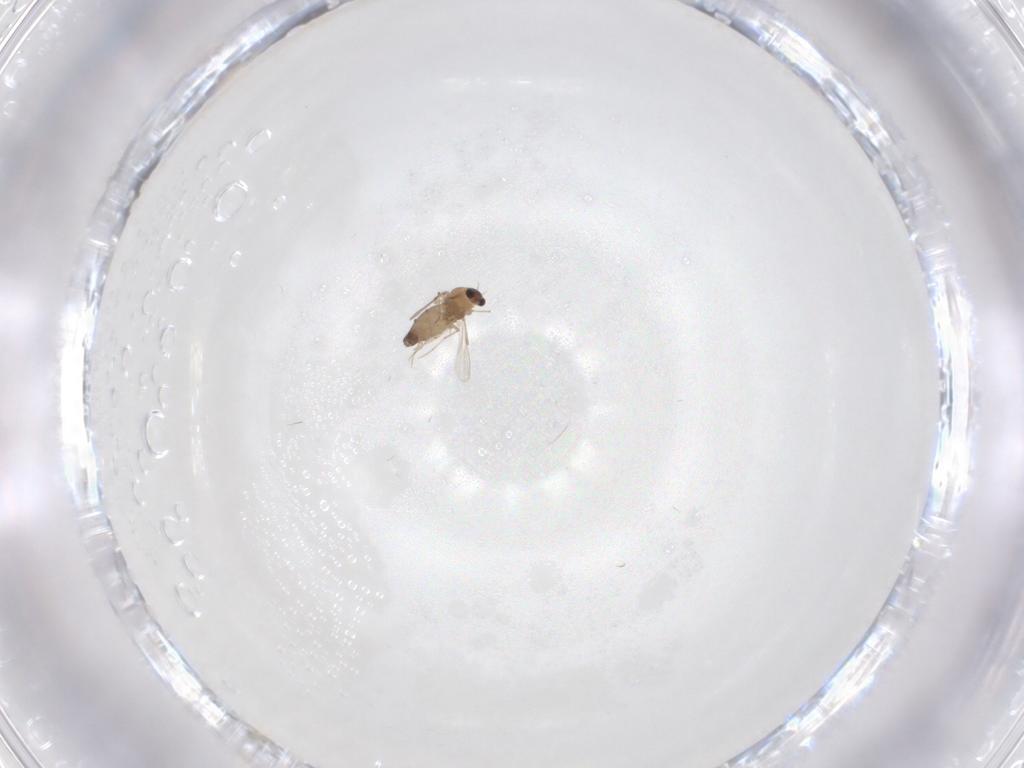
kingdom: Animalia
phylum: Arthropoda
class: Insecta
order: Diptera
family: Chironomidae
